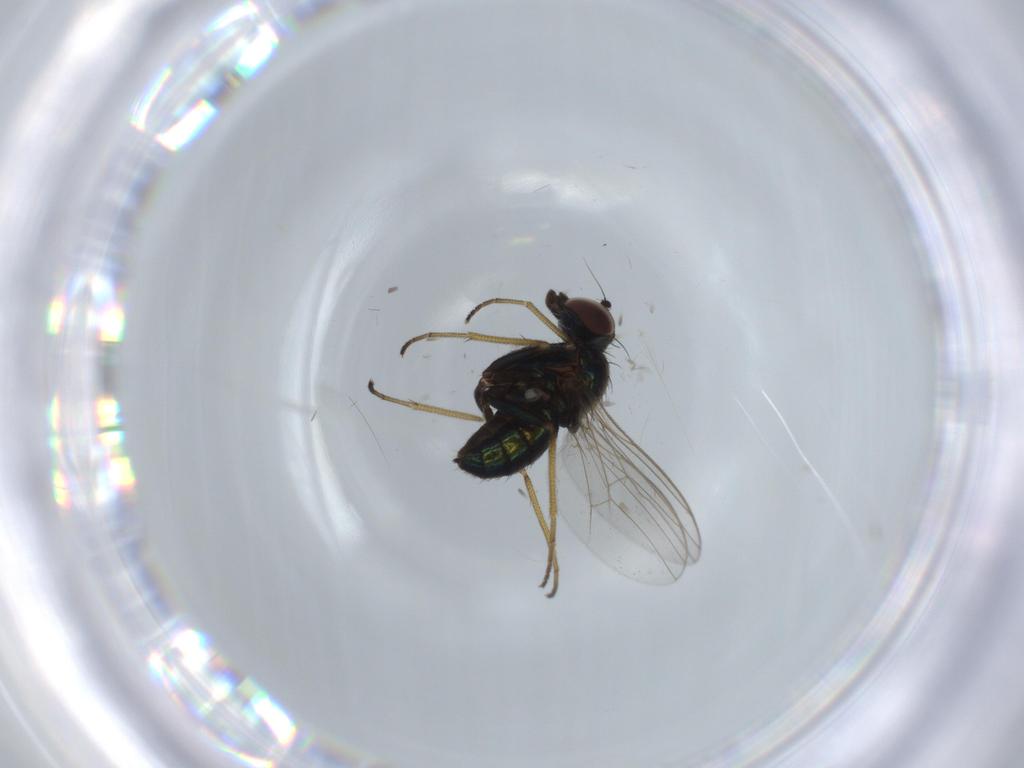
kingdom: Animalia
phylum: Arthropoda
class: Insecta
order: Diptera
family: Dolichopodidae
